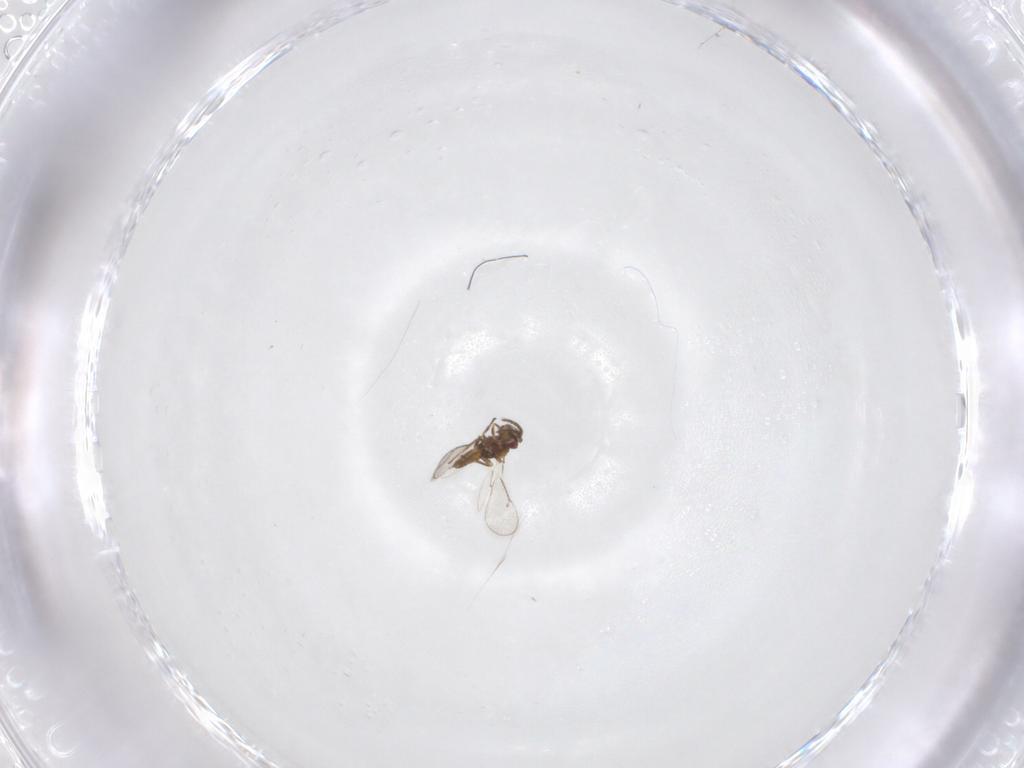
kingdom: Animalia
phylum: Arthropoda
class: Insecta
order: Hymenoptera
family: Eulophidae
